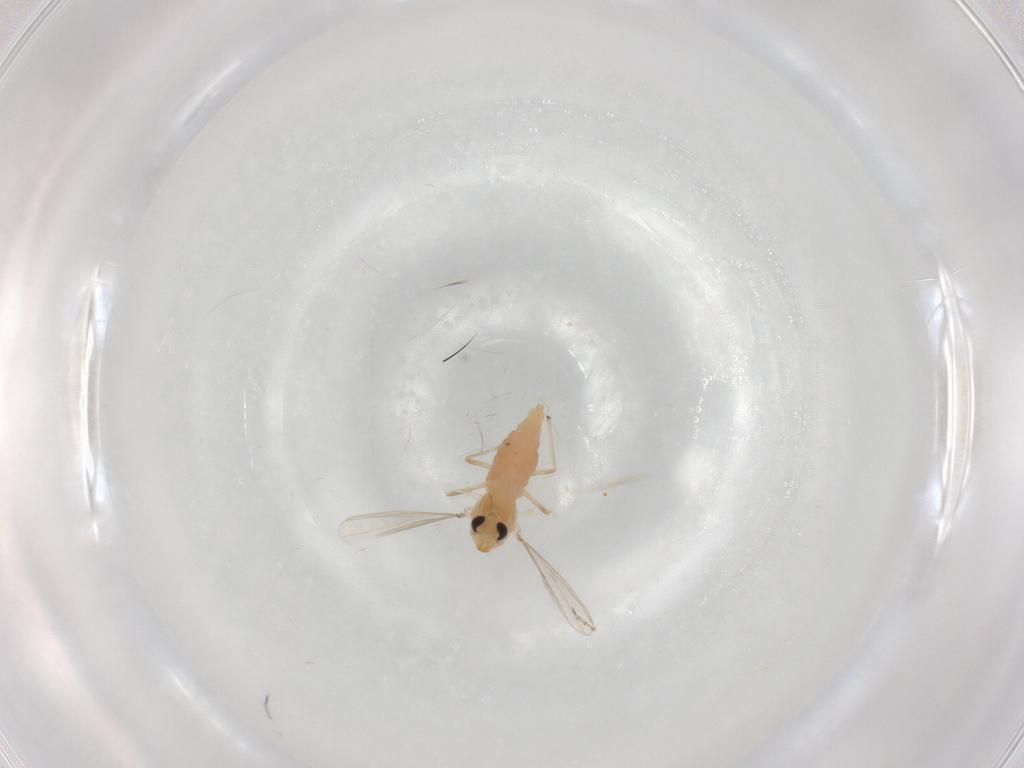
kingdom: Animalia
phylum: Arthropoda
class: Insecta
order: Diptera
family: Chironomidae
